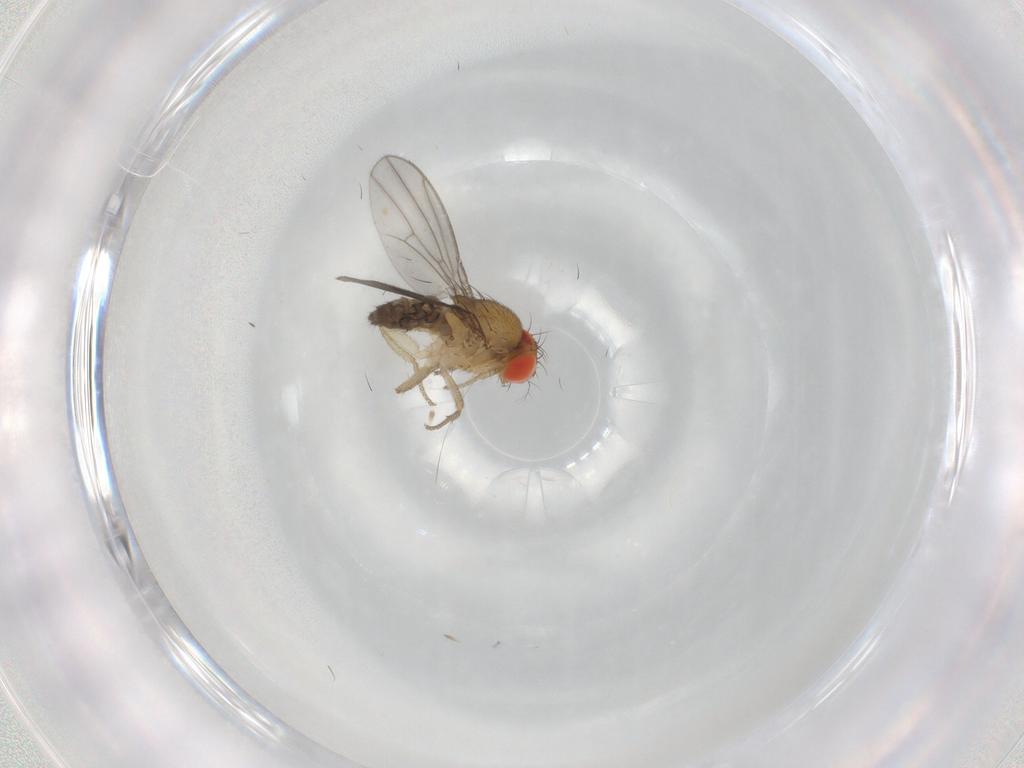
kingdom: Animalia
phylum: Arthropoda
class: Insecta
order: Diptera
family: Drosophilidae
